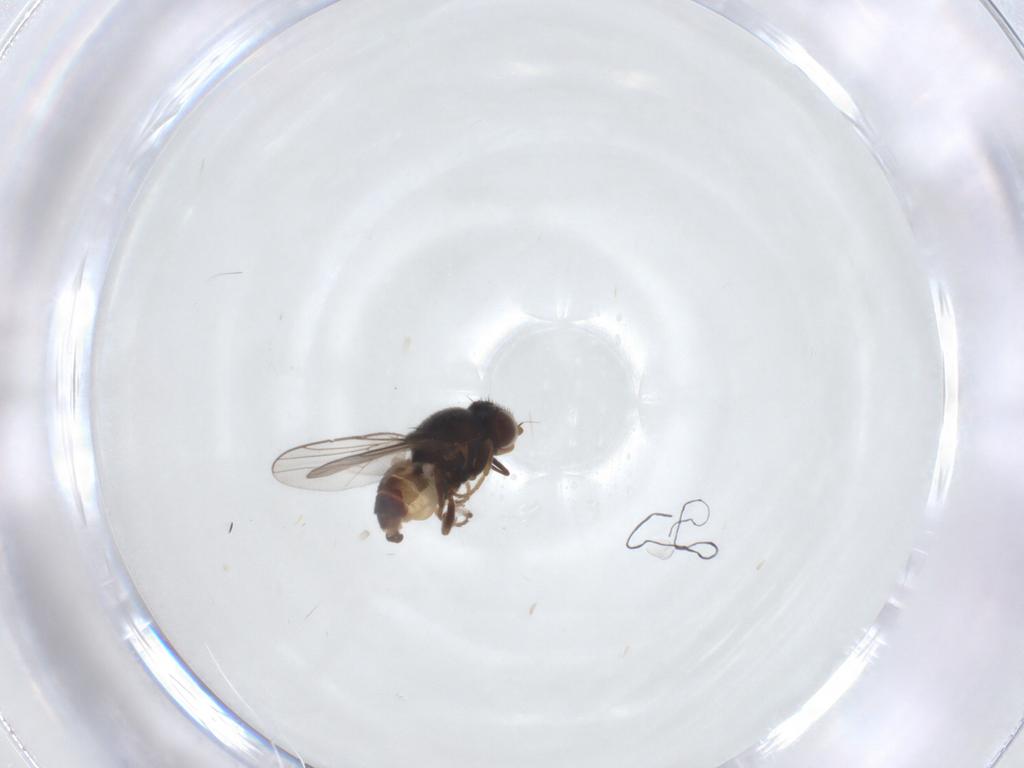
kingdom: Animalia
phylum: Arthropoda
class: Insecta
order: Diptera
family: Chloropidae
